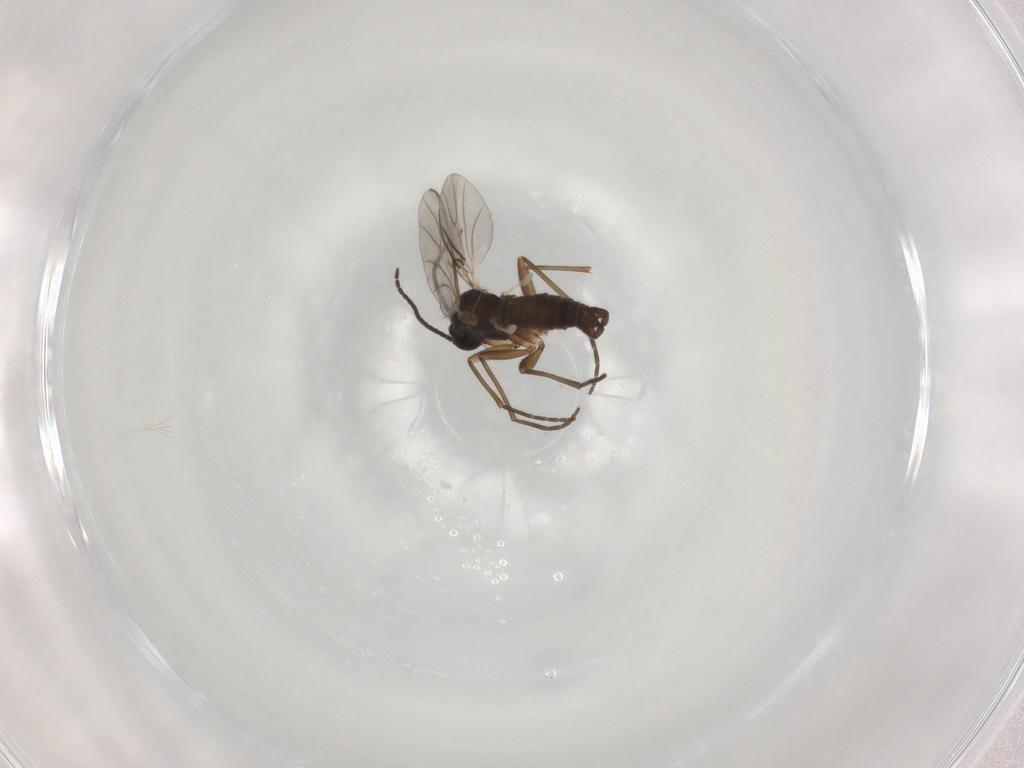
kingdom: Animalia
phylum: Arthropoda
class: Insecta
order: Diptera
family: Sciaridae
